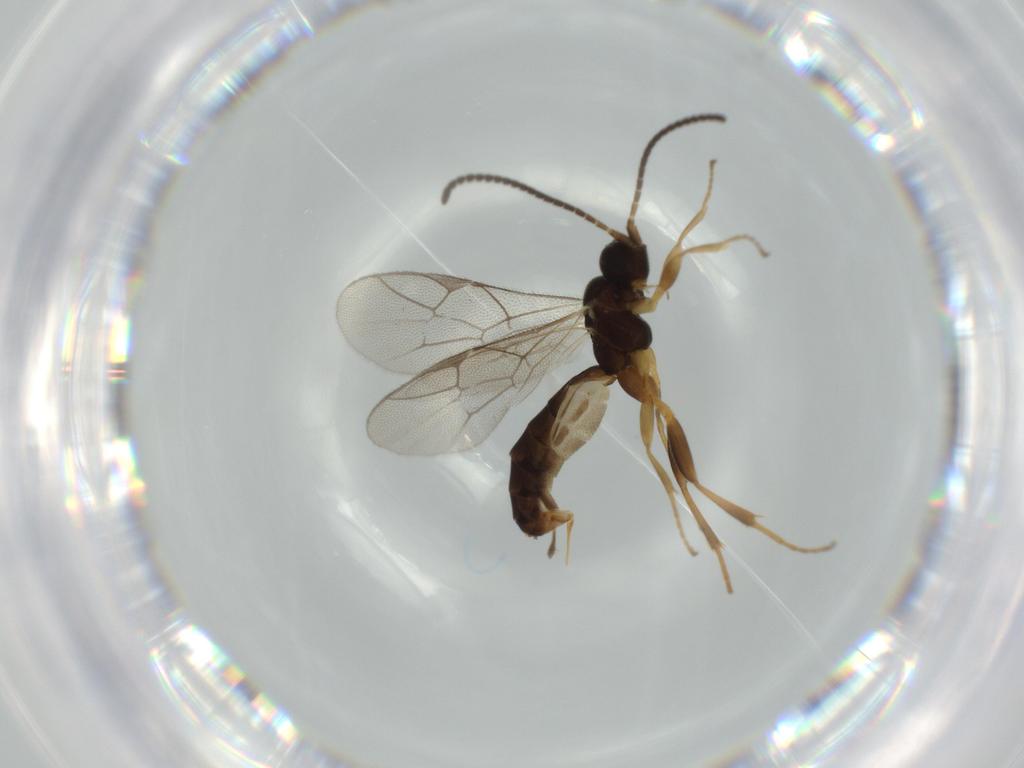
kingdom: Animalia
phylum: Arthropoda
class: Insecta
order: Hymenoptera
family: Ichneumonidae
